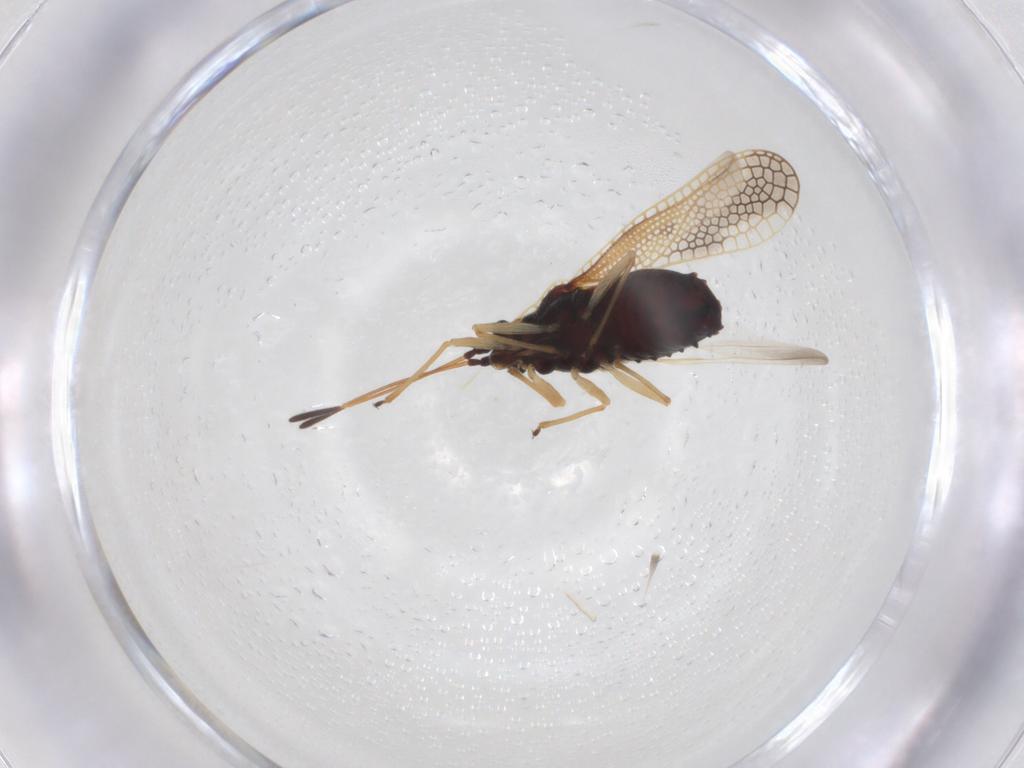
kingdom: Animalia
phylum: Arthropoda
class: Insecta
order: Hemiptera
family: Tingidae
